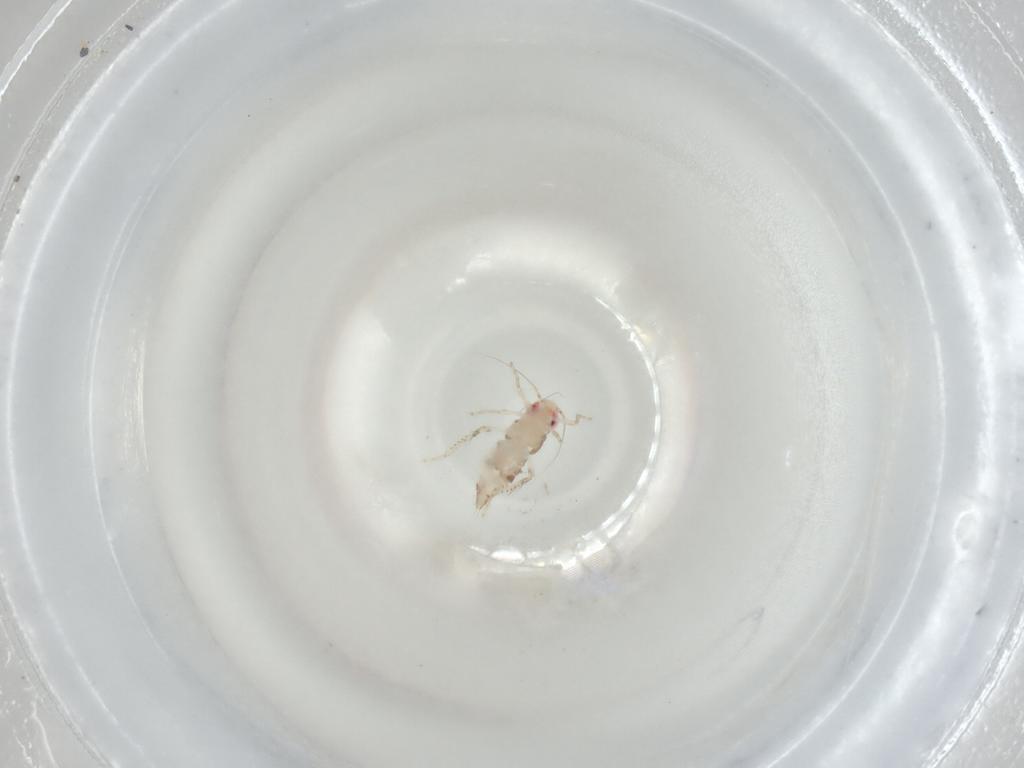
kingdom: Animalia
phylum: Arthropoda
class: Insecta
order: Hemiptera
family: Cicadellidae
